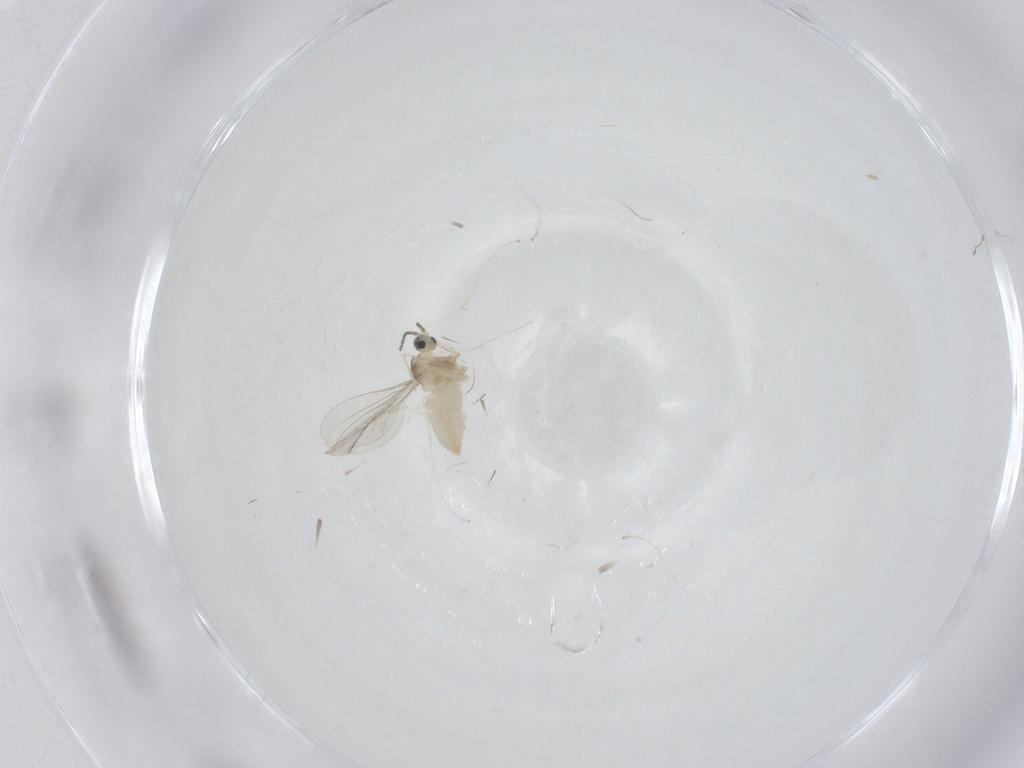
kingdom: Animalia
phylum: Arthropoda
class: Insecta
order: Diptera
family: Cecidomyiidae
